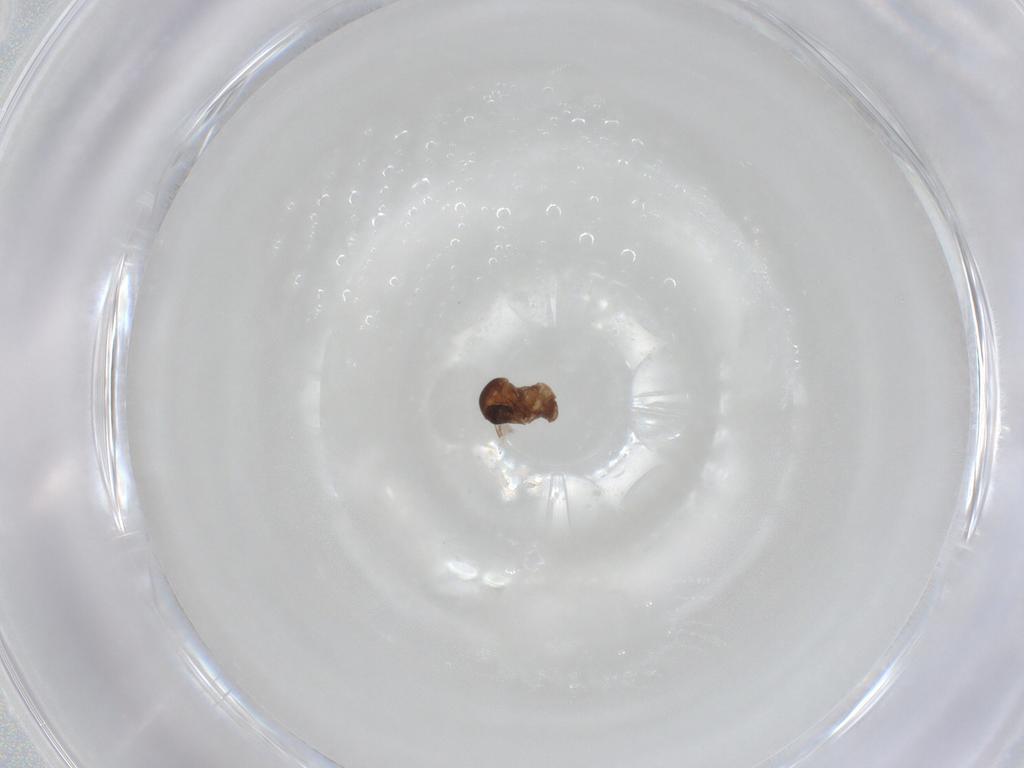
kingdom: Animalia
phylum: Arthropoda
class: Insecta
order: Diptera
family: Ceratopogonidae
